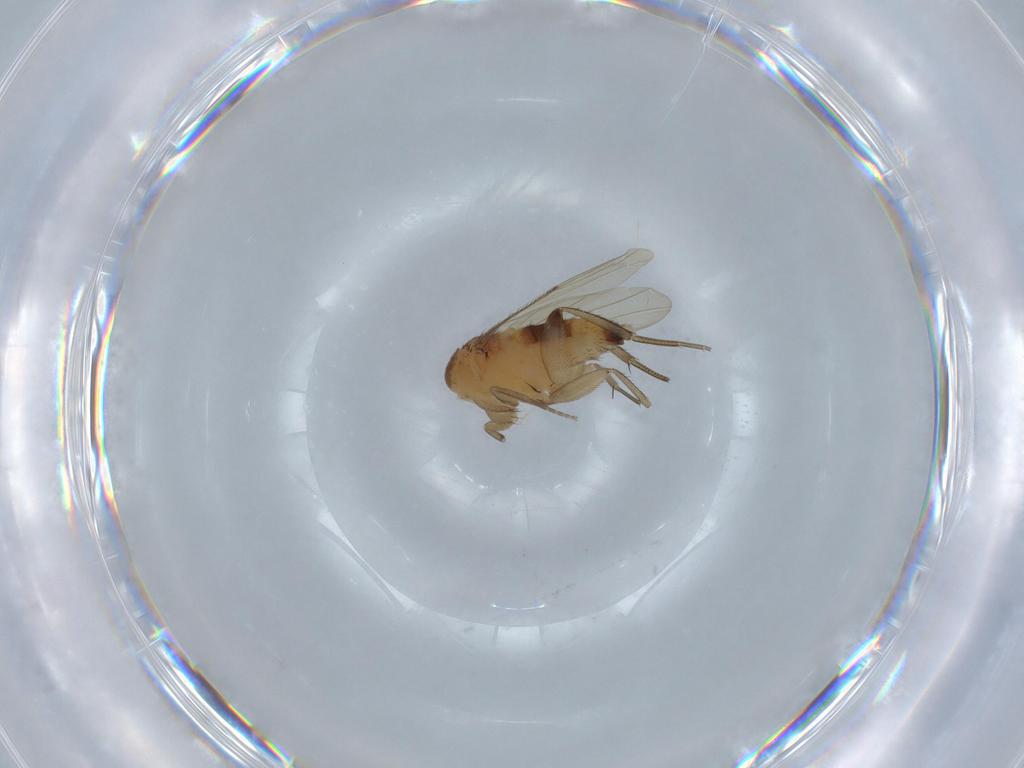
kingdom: Animalia
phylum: Arthropoda
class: Insecta
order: Diptera
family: Phoridae
